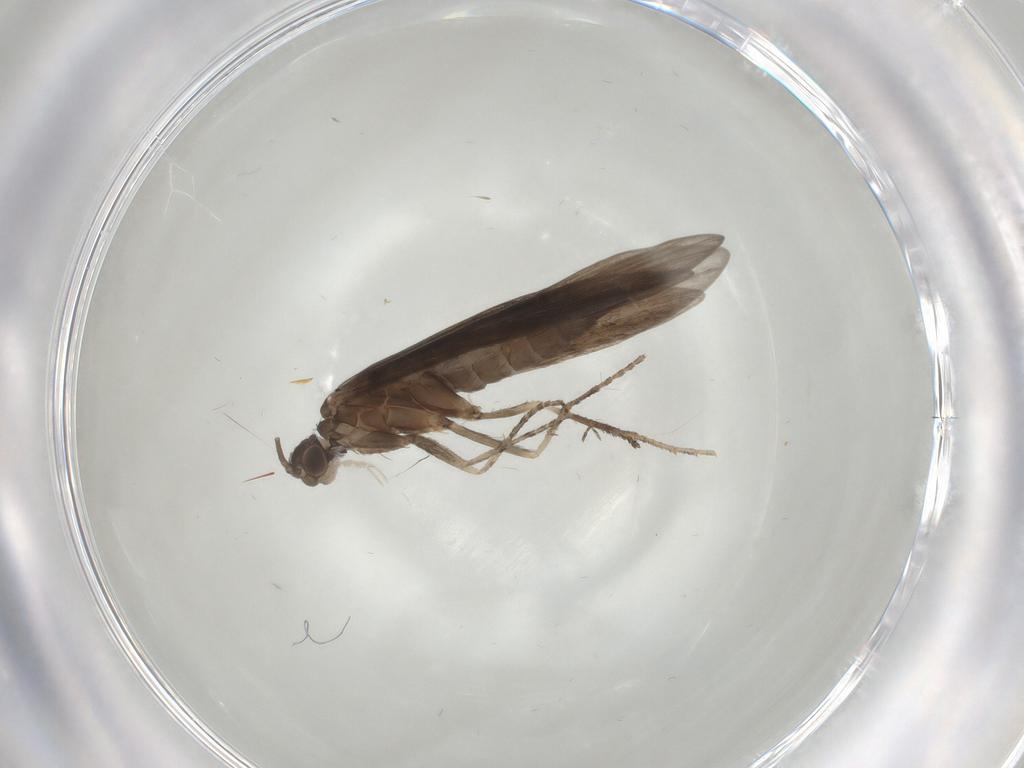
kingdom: Animalia
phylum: Arthropoda
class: Insecta
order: Trichoptera
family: Xiphocentronidae
